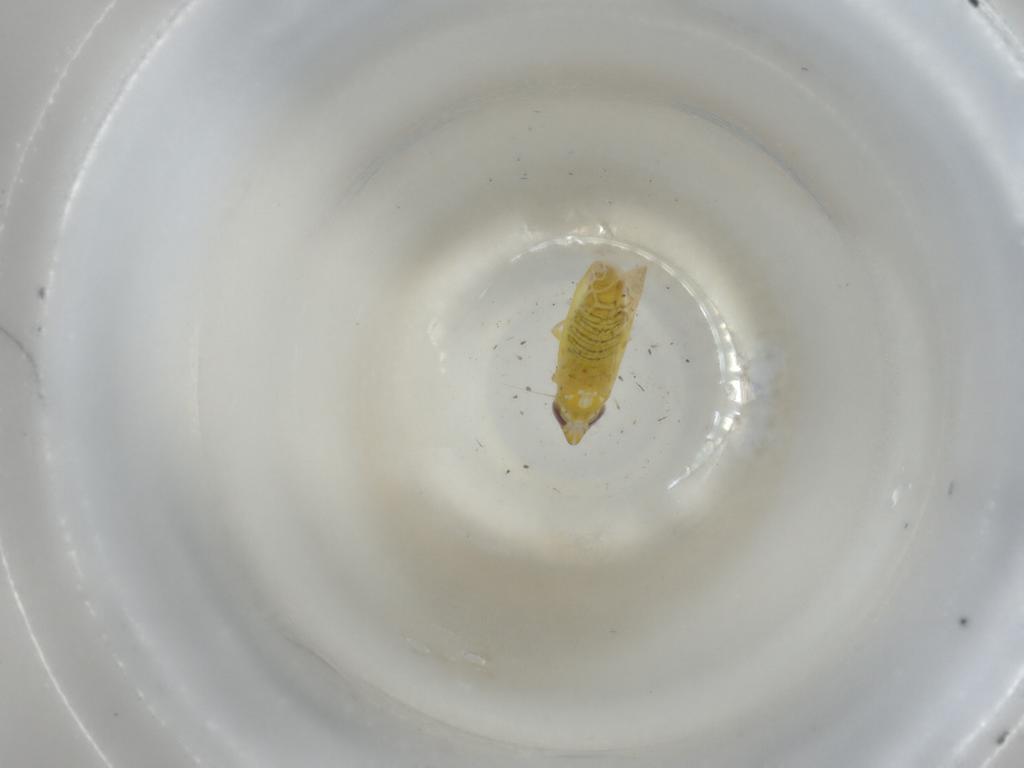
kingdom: Animalia
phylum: Arthropoda
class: Insecta
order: Hemiptera
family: Cicadellidae
